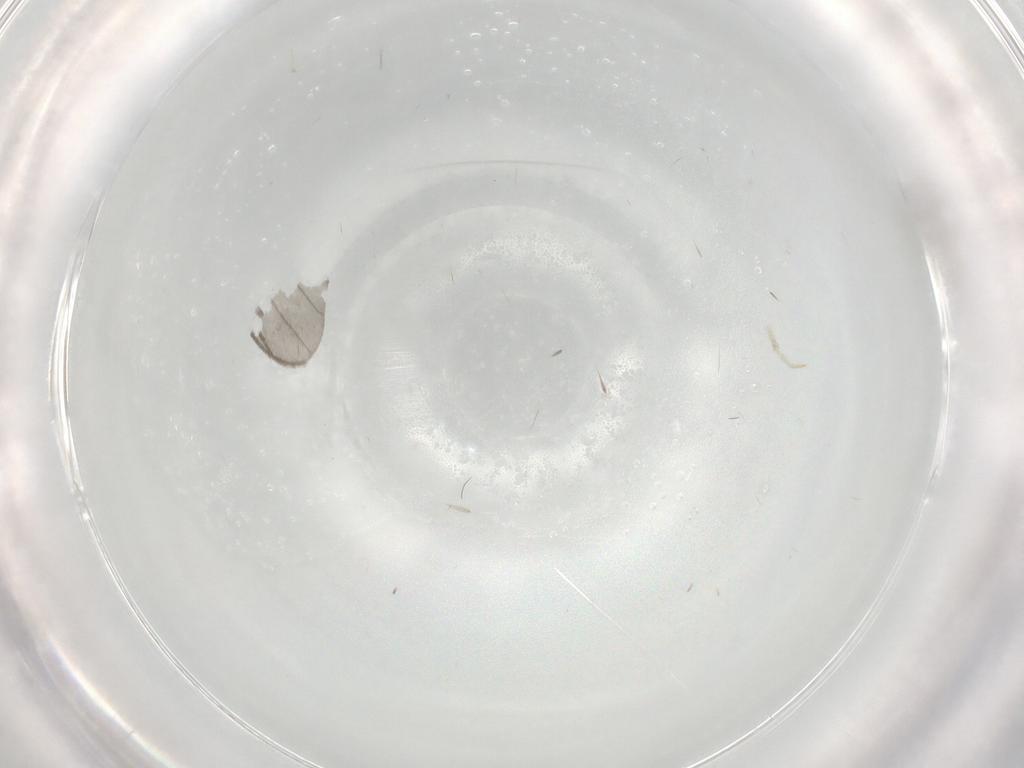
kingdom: Animalia
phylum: Arthropoda
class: Insecta
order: Diptera
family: Cecidomyiidae
